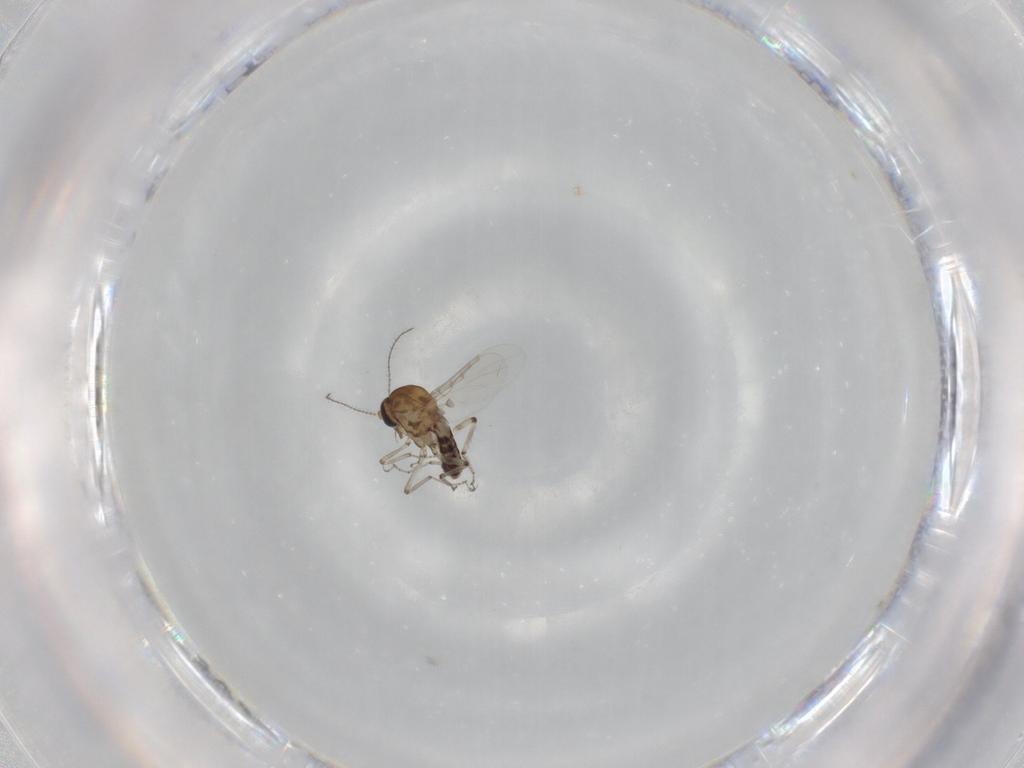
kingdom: Animalia
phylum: Arthropoda
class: Insecta
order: Diptera
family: Ceratopogonidae
